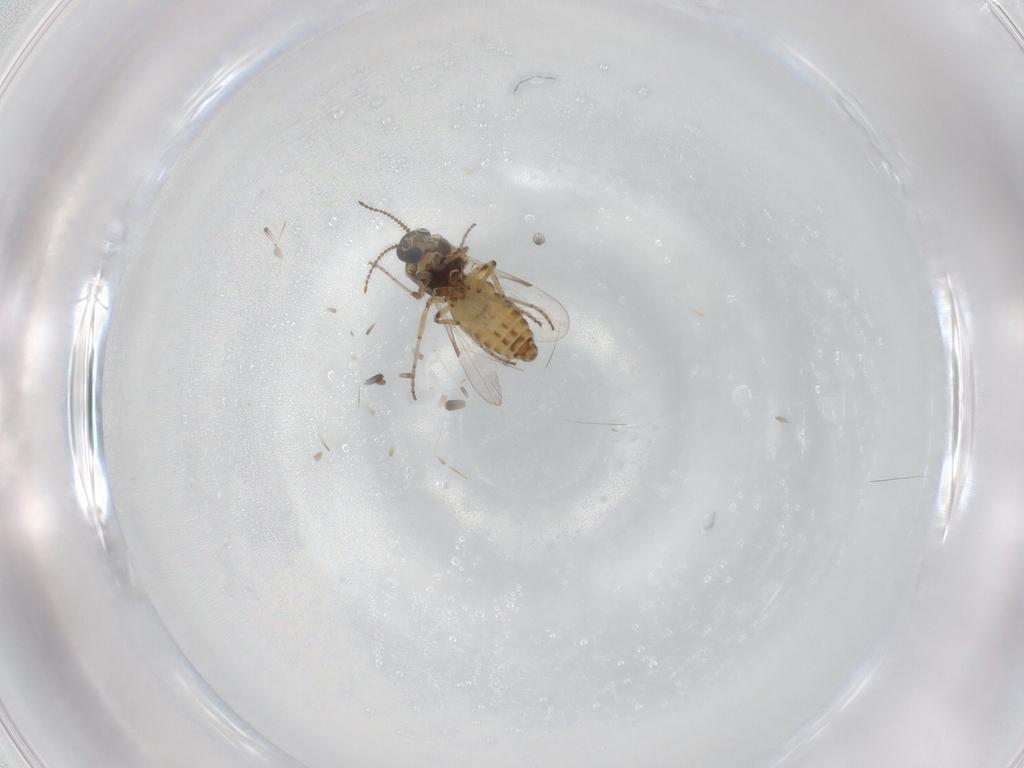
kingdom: Animalia
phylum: Arthropoda
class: Insecta
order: Diptera
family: Ceratopogonidae
